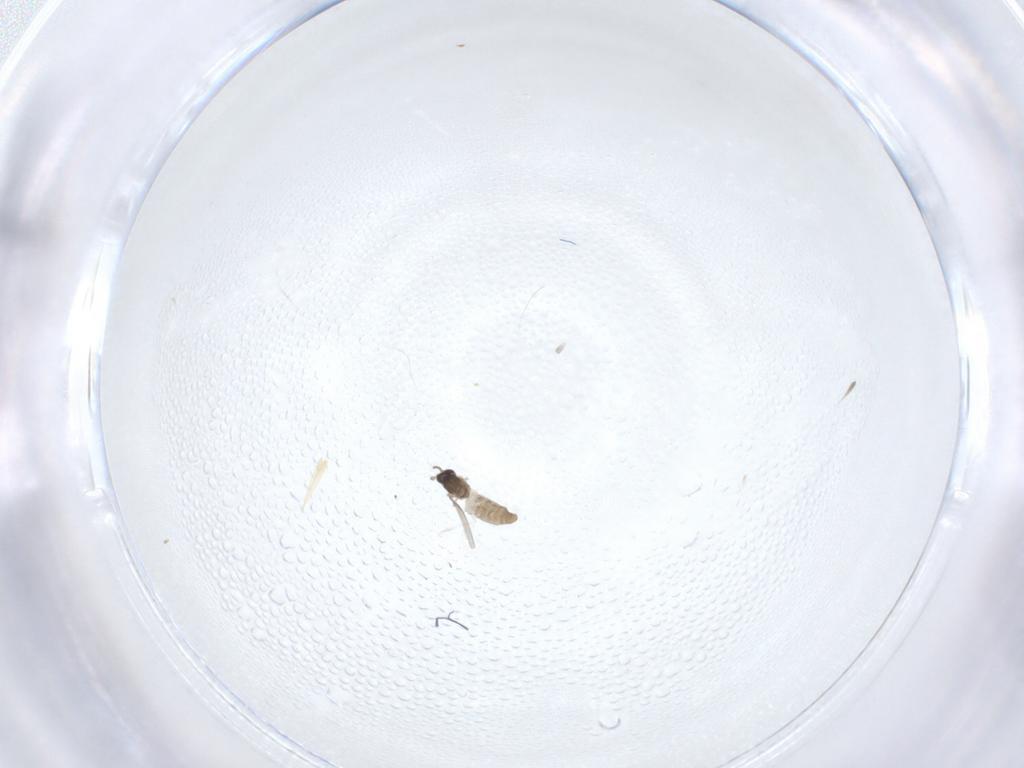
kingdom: Animalia
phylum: Arthropoda
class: Insecta
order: Diptera
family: Cecidomyiidae
